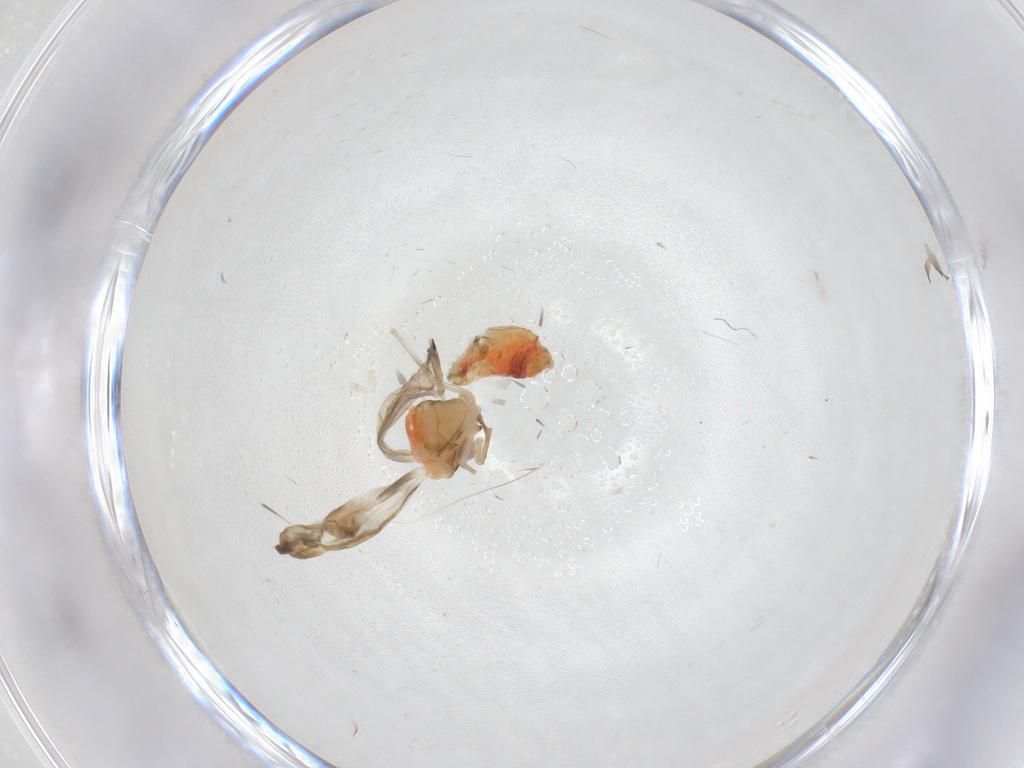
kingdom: Animalia
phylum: Arthropoda
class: Insecta
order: Hemiptera
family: Aleyrodidae
